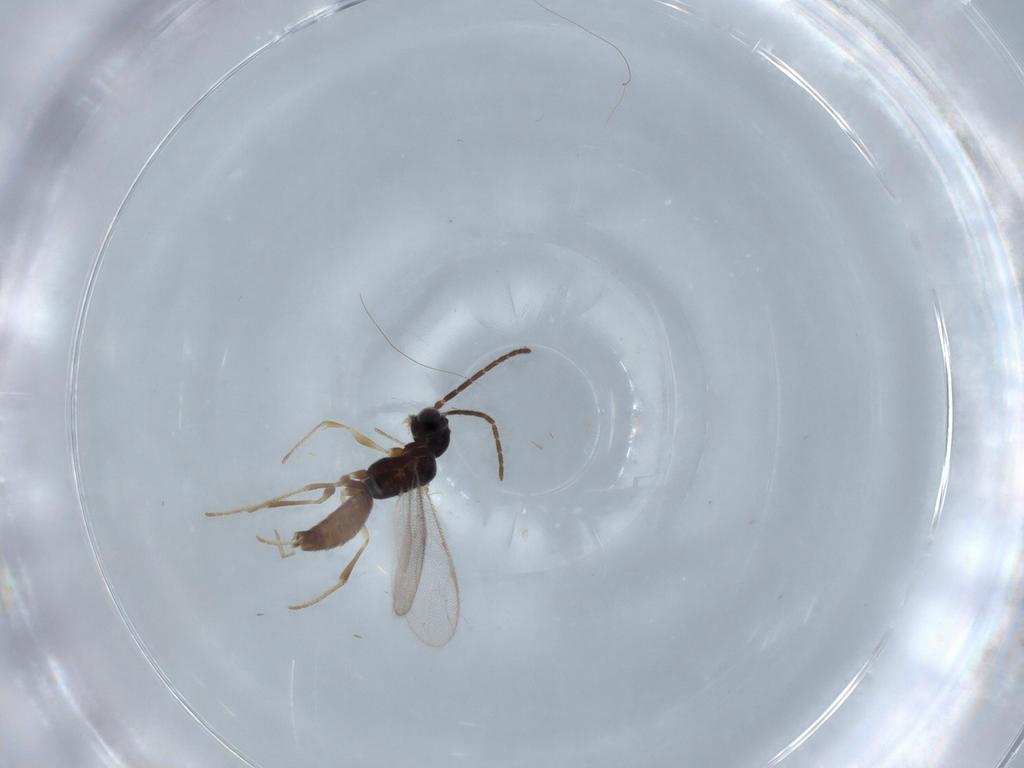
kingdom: Animalia
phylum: Arthropoda
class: Insecta
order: Hymenoptera
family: Dryinidae
